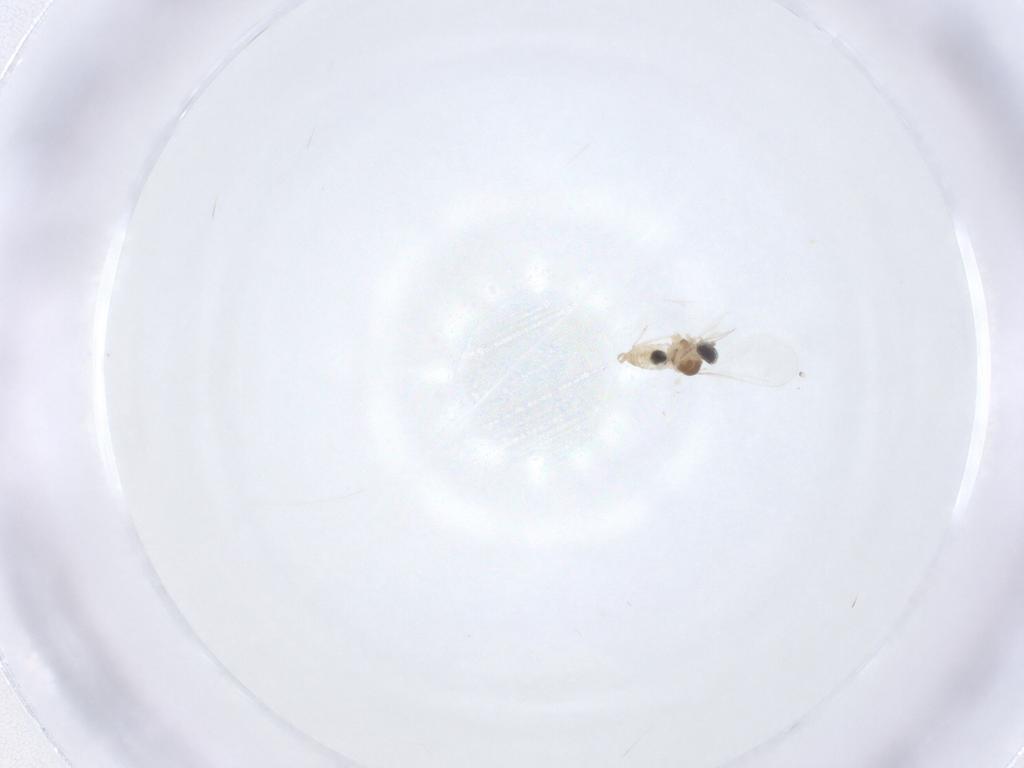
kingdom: Animalia
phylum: Arthropoda
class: Insecta
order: Diptera
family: Cecidomyiidae
